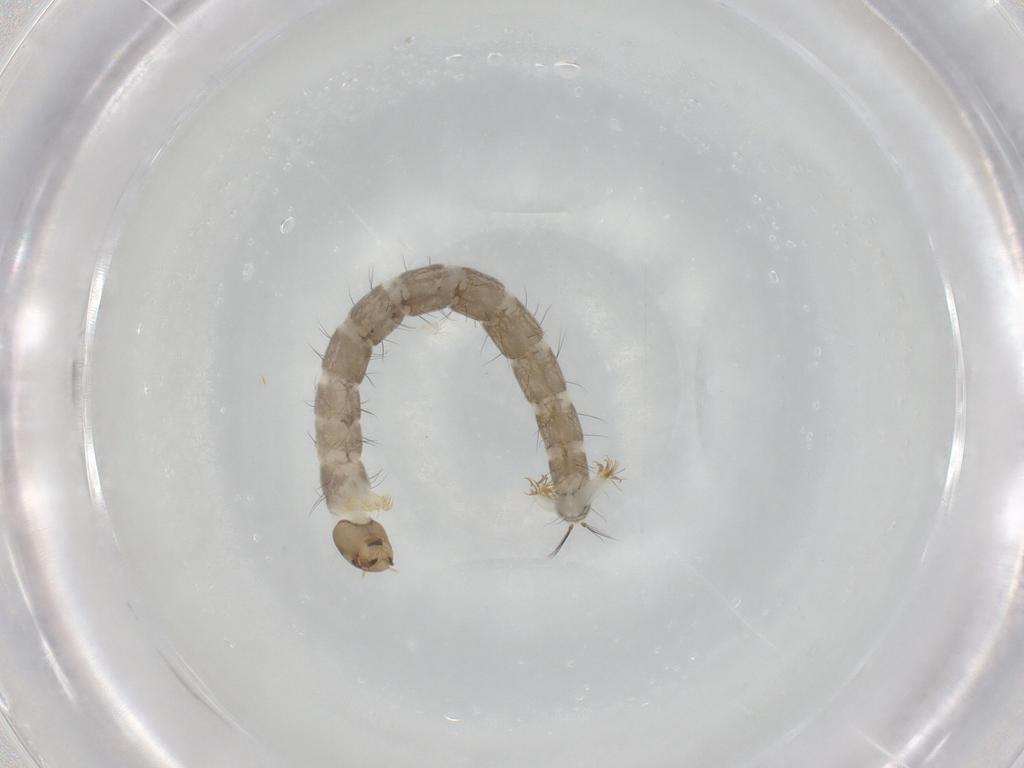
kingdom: Animalia
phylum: Arthropoda
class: Insecta
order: Diptera
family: Chironomidae
